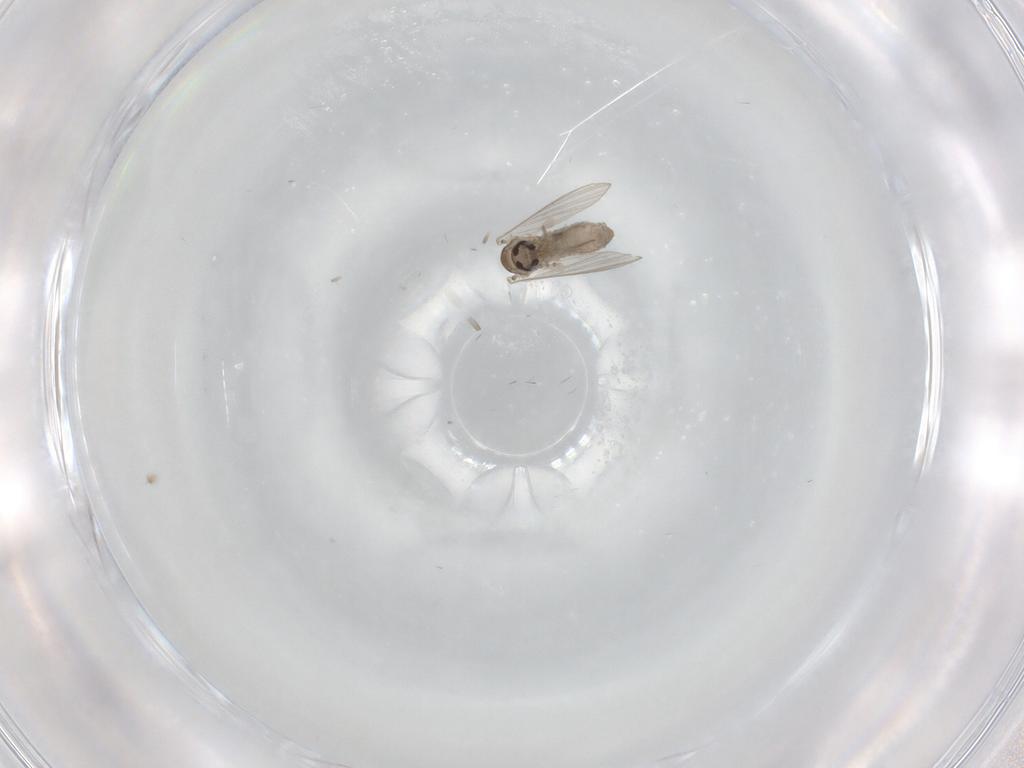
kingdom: Animalia
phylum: Arthropoda
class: Insecta
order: Diptera
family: Psychodidae
